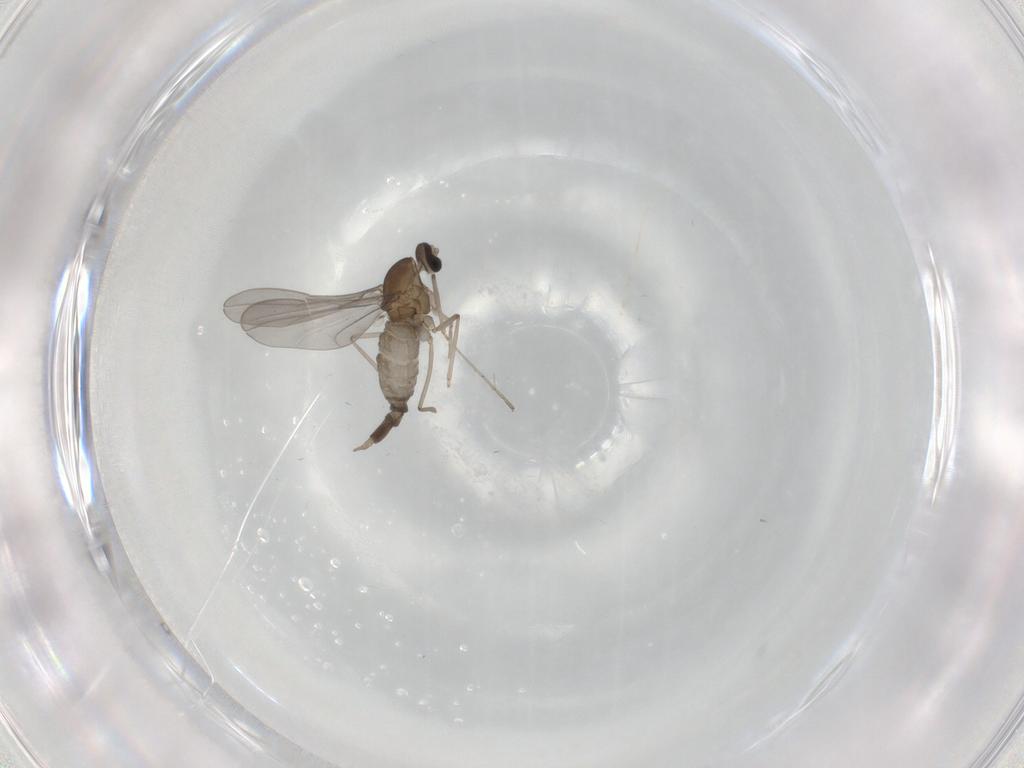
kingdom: Animalia
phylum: Arthropoda
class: Insecta
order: Diptera
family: Cecidomyiidae
